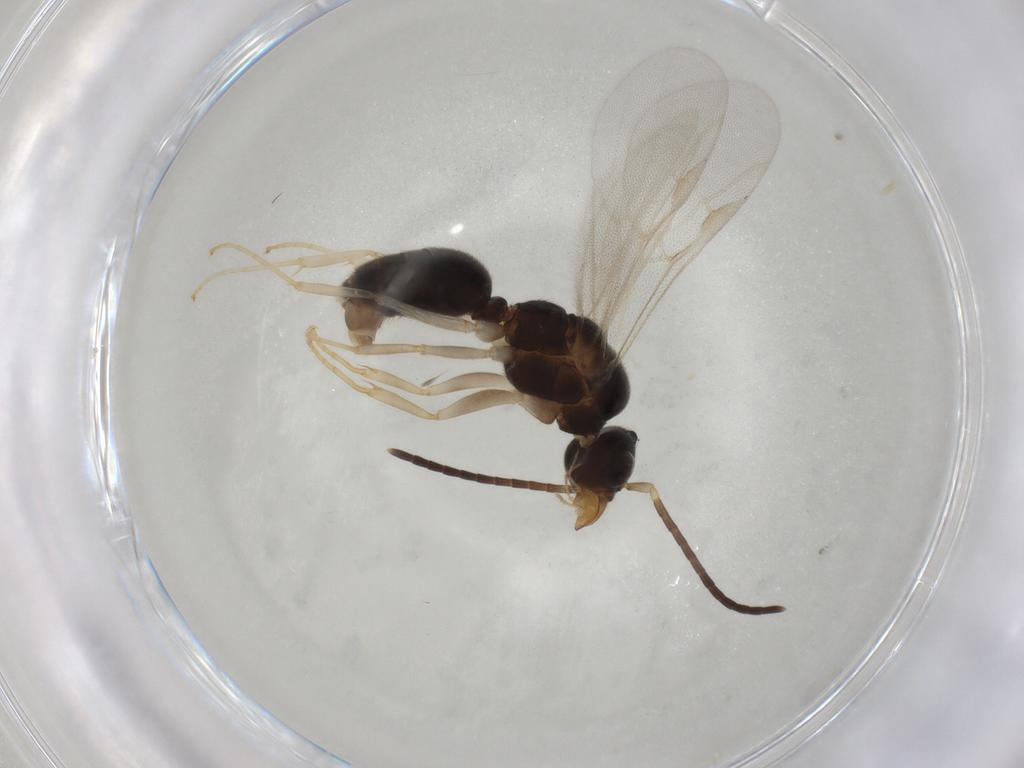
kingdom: Animalia
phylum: Arthropoda
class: Insecta
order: Hymenoptera
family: Formicidae
